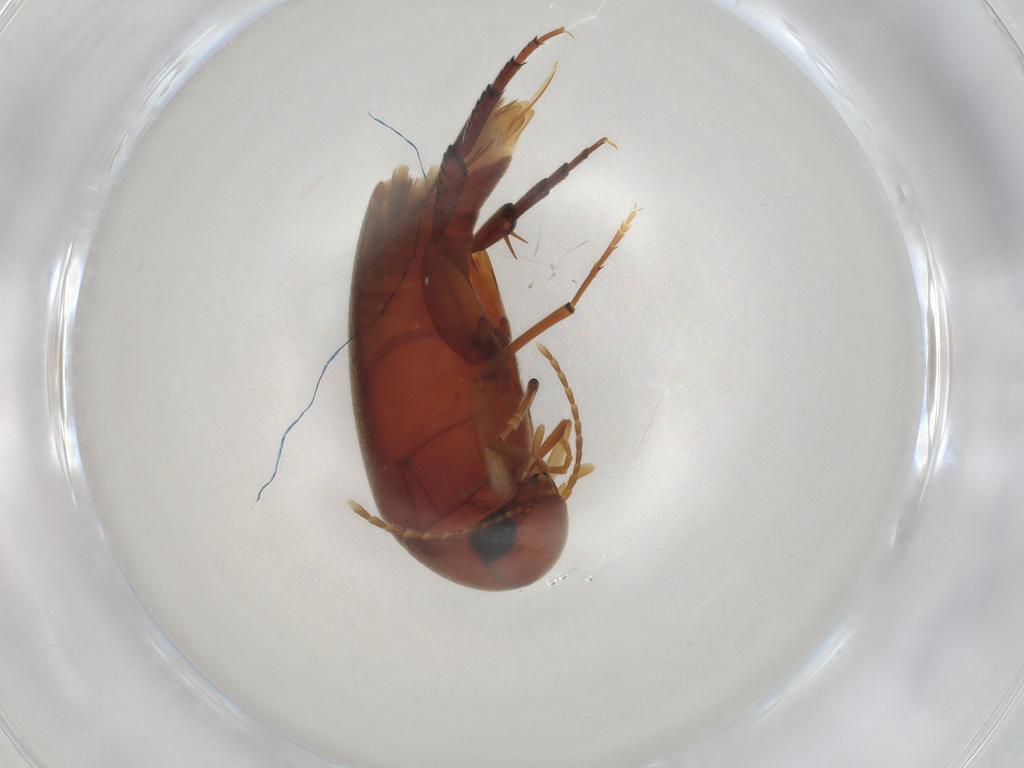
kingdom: Animalia
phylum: Arthropoda
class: Insecta
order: Coleoptera
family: Mordellidae
